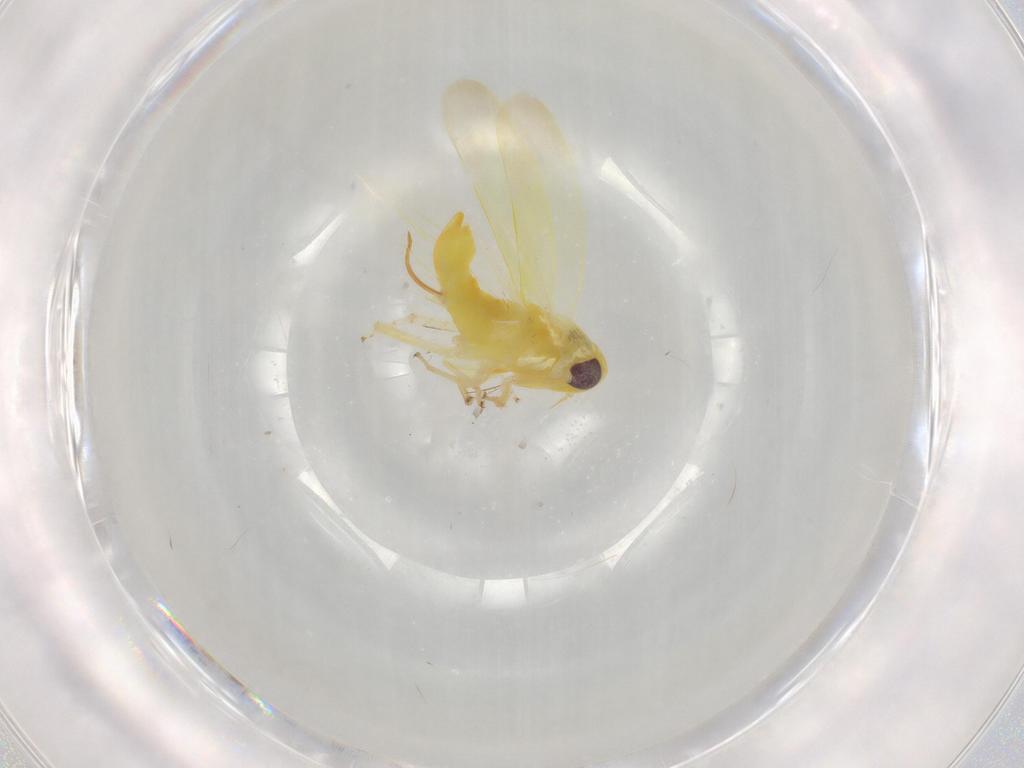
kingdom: Animalia
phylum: Arthropoda
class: Insecta
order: Hemiptera
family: Cicadellidae
